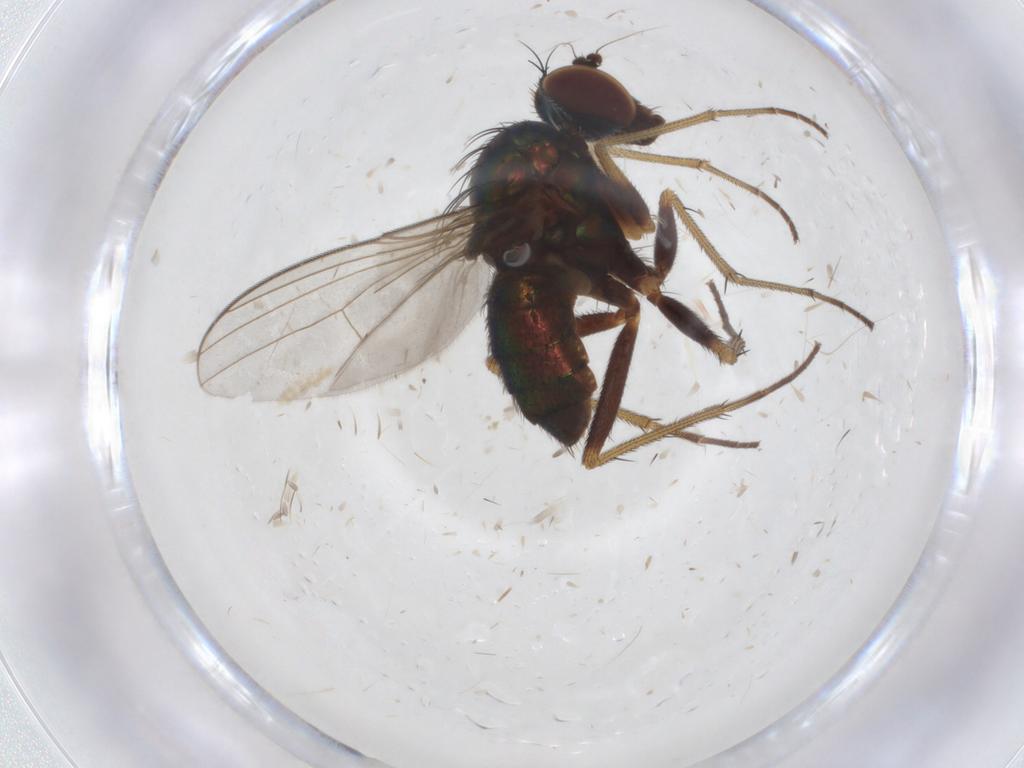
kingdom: Animalia
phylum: Arthropoda
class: Insecta
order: Diptera
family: Dolichopodidae
